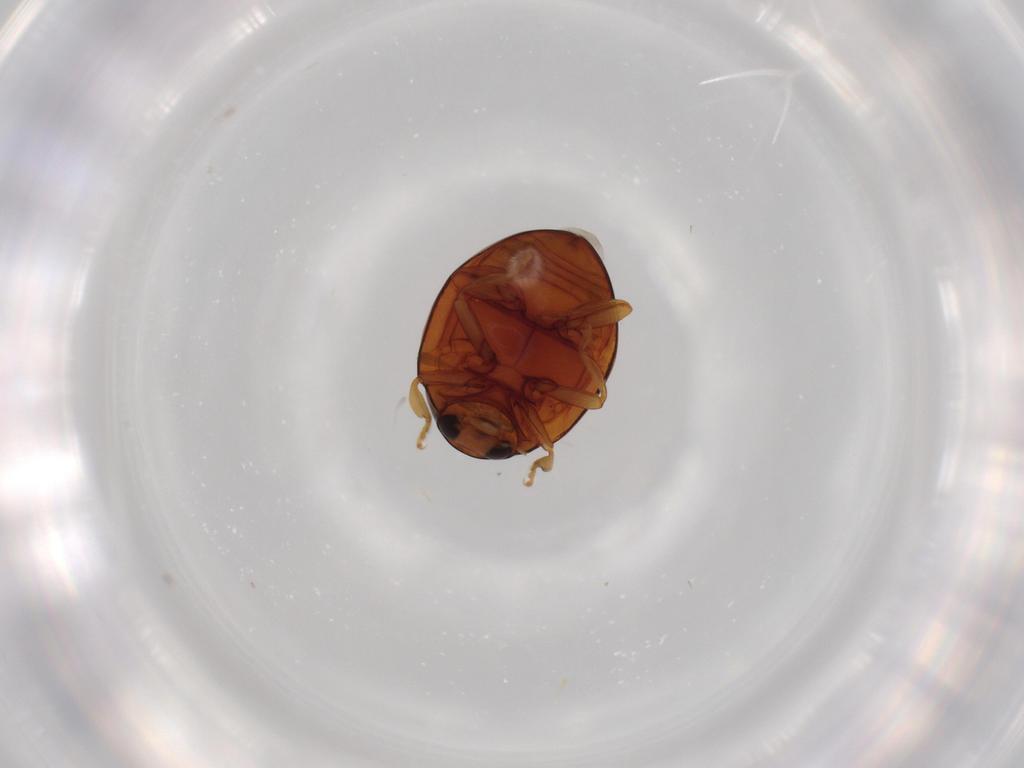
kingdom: Animalia
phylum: Arthropoda
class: Insecta
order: Coleoptera
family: Coccinellidae
